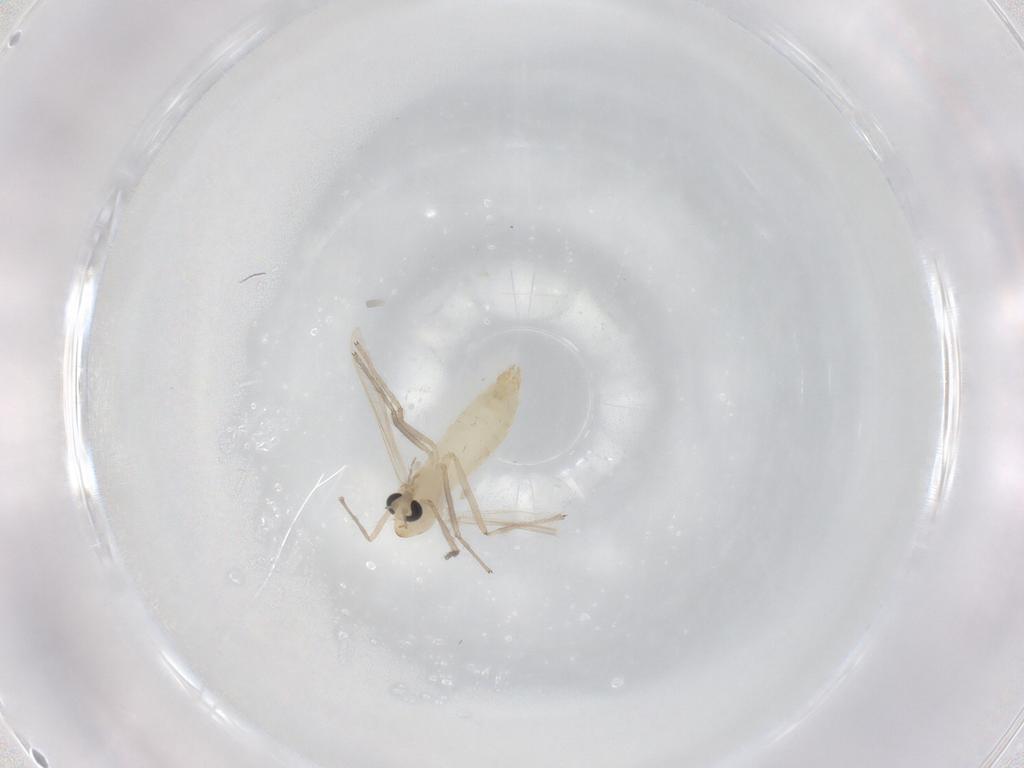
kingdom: Animalia
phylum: Arthropoda
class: Insecta
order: Diptera
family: Chironomidae
